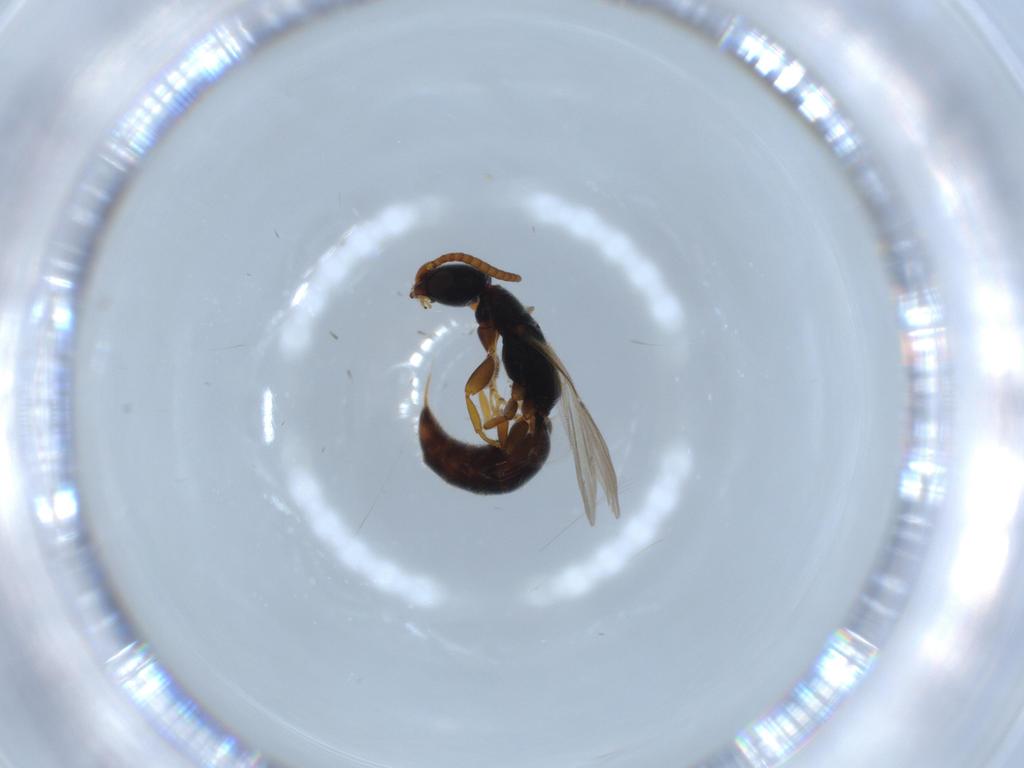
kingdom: Animalia
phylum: Arthropoda
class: Insecta
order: Hymenoptera
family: Bethylidae
